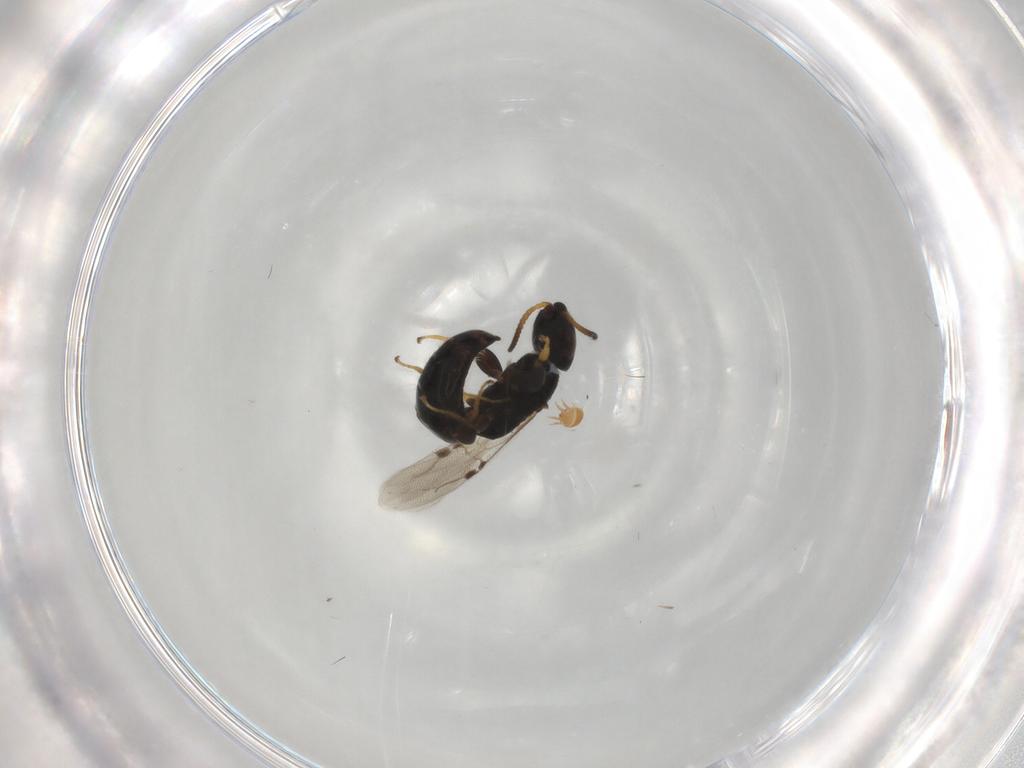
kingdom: Animalia
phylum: Arthropoda
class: Insecta
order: Hymenoptera
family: Bethylidae
